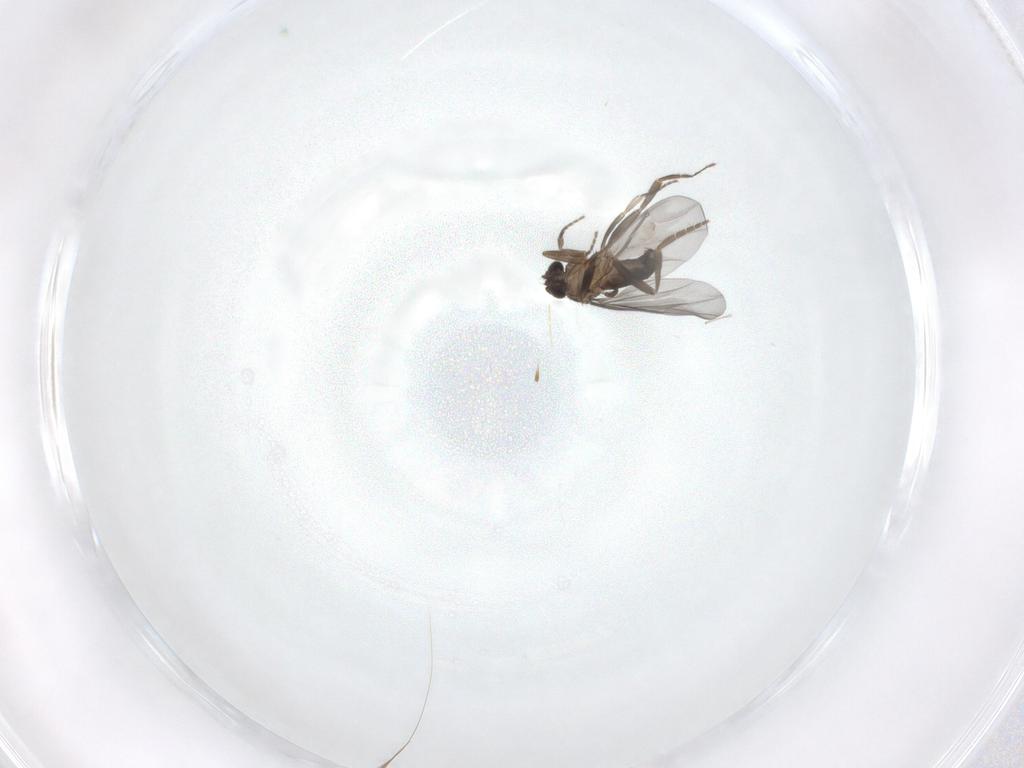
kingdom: Animalia
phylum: Arthropoda
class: Insecta
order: Diptera
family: Phoridae
